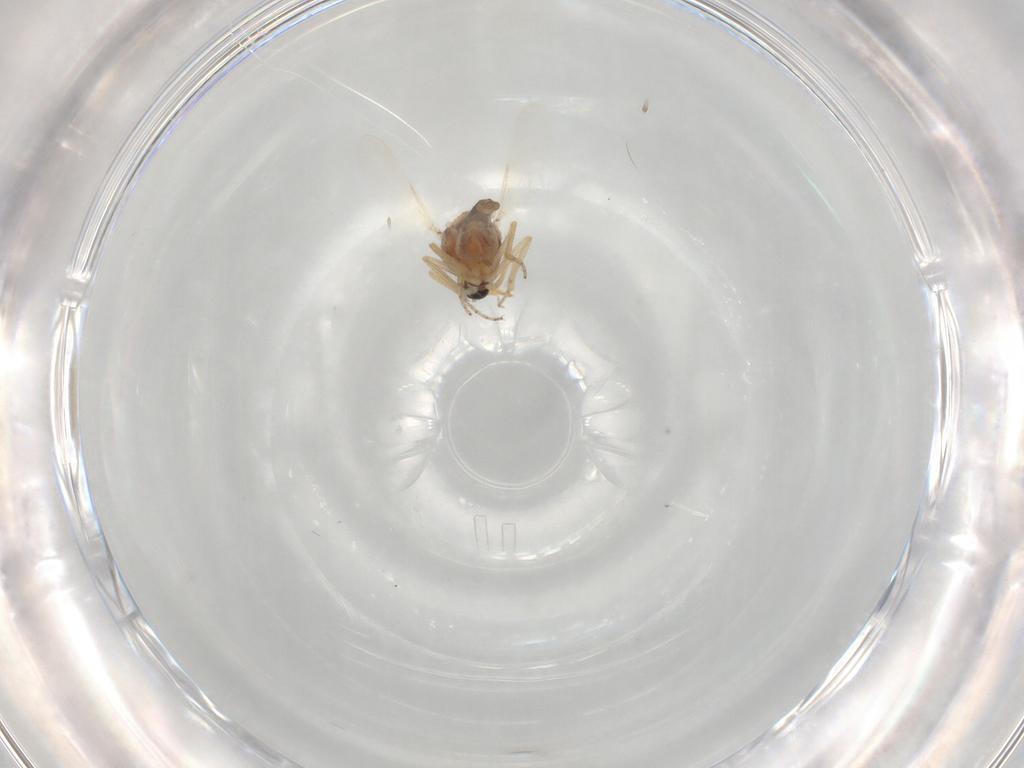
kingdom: Animalia
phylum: Arthropoda
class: Insecta
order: Diptera
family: Ceratopogonidae
